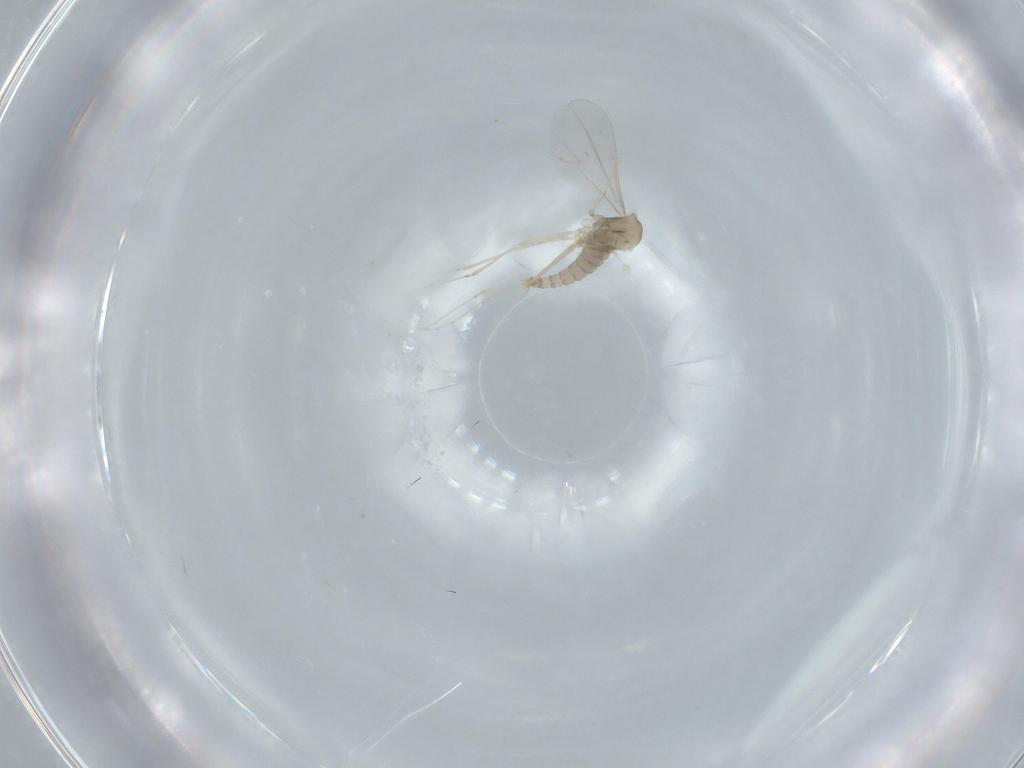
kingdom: Animalia
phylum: Arthropoda
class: Insecta
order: Diptera
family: Cecidomyiidae
